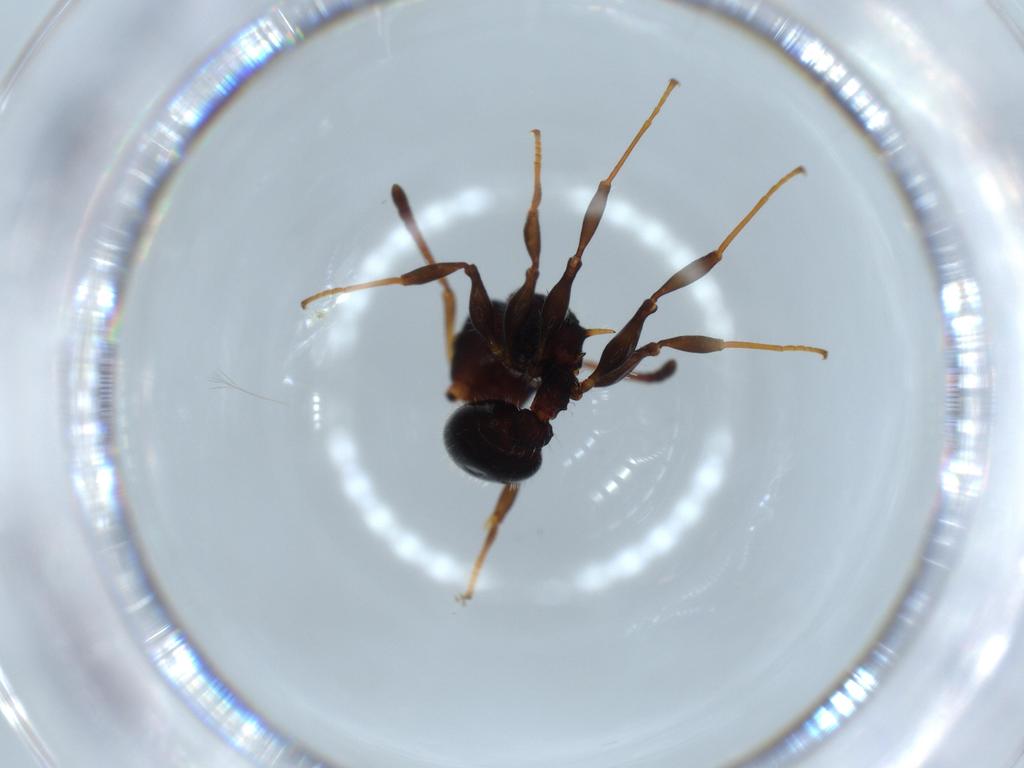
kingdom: Animalia
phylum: Arthropoda
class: Insecta
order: Hymenoptera
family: Formicidae
